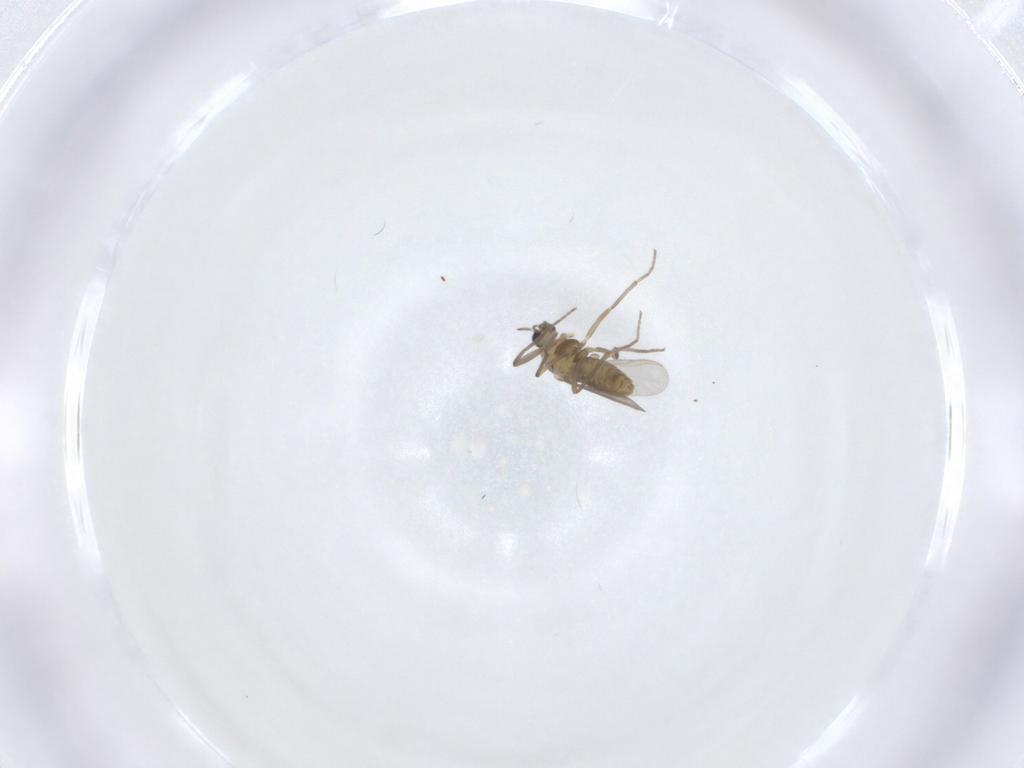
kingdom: Animalia
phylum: Arthropoda
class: Insecta
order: Diptera
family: Chironomidae
